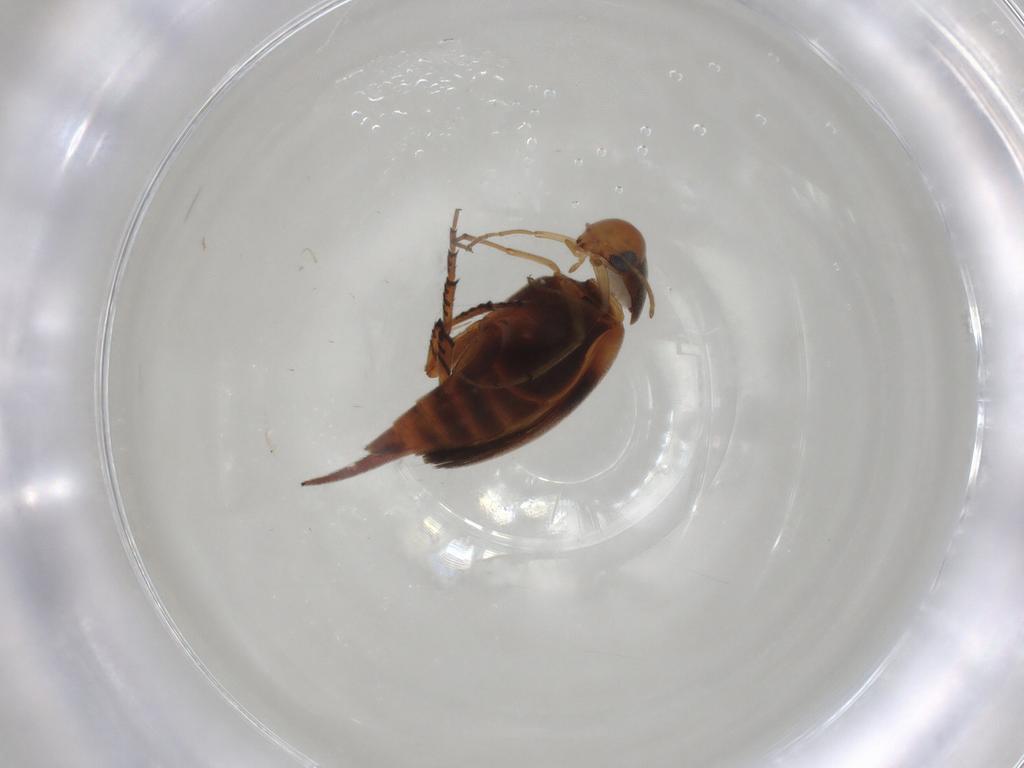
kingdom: Animalia
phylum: Arthropoda
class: Insecta
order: Coleoptera
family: Mordellidae
